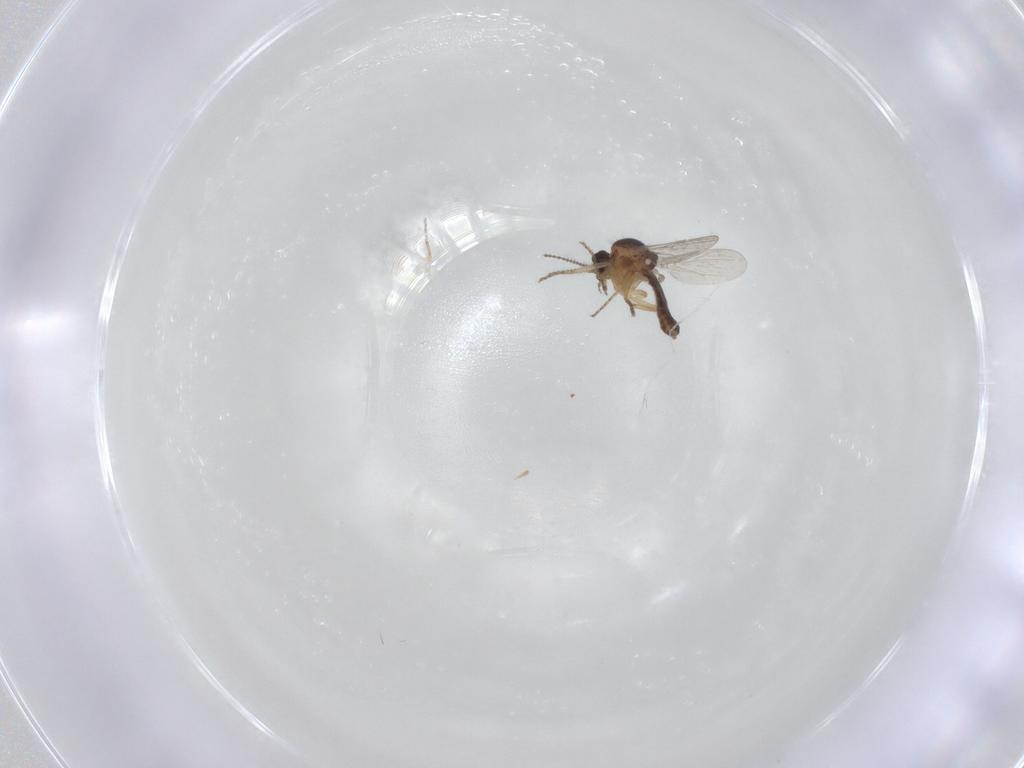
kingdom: Animalia
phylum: Arthropoda
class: Insecta
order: Diptera
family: Ceratopogonidae
